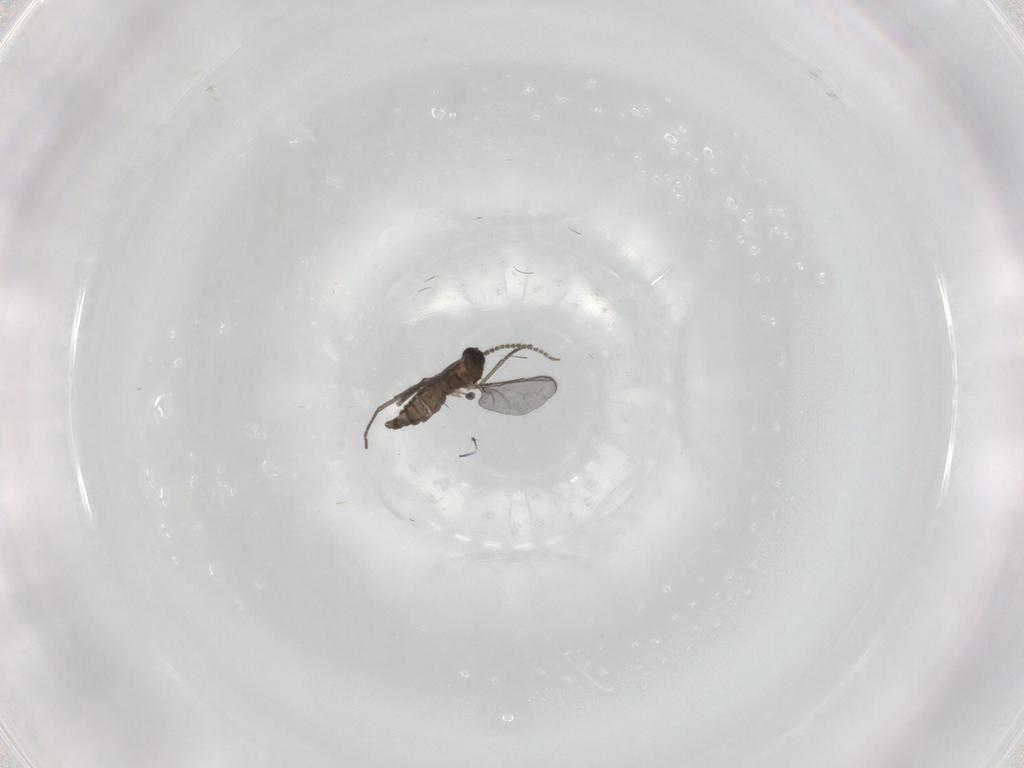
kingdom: Animalia
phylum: Arthropoda
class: Insecta
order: Diptera
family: Sciaridae
